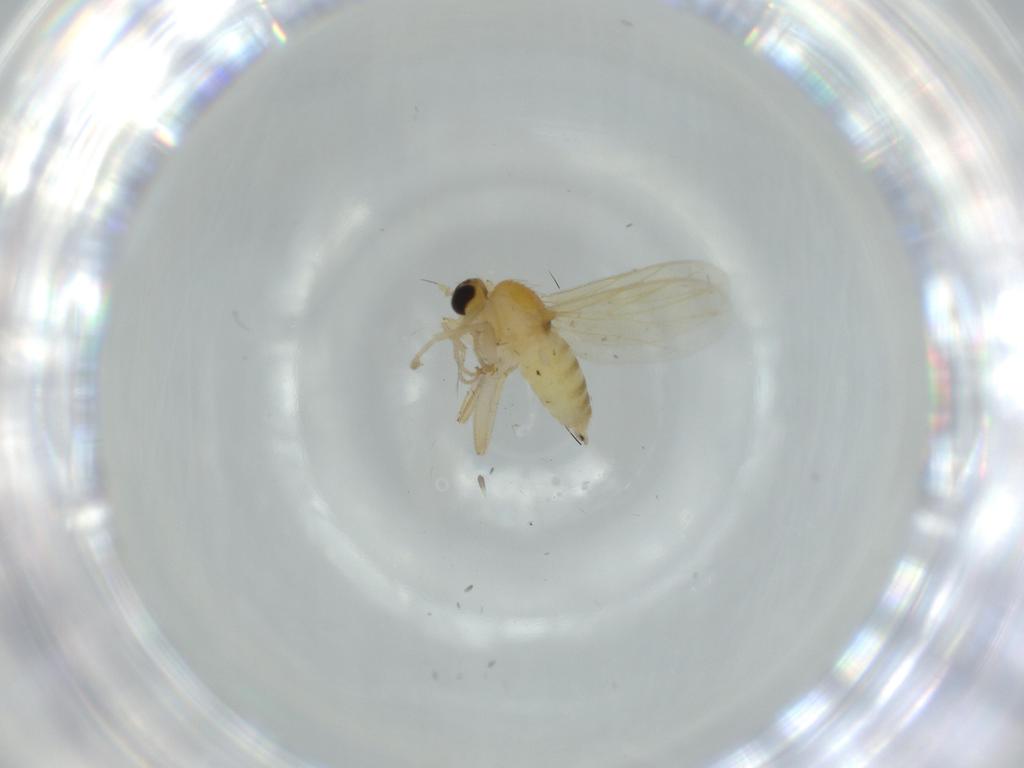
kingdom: Animalia
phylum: Arthropoda
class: Insecta
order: Diptera
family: Hybotidae
